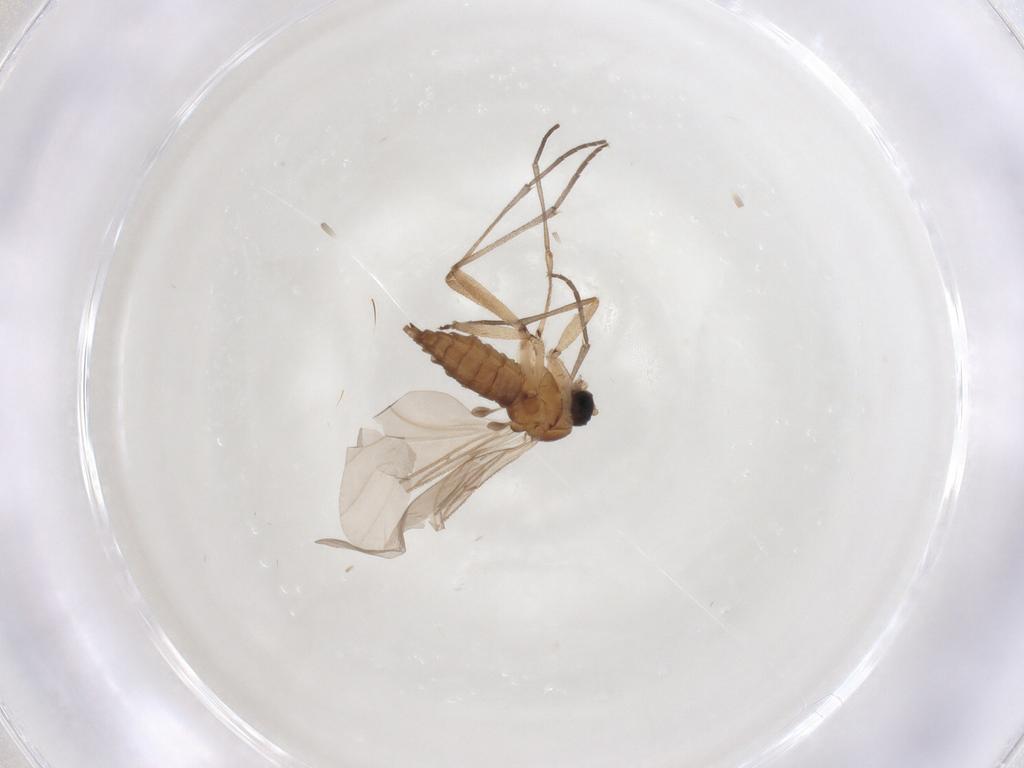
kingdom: Animalia
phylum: Arthropoda
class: Insecta
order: Diptera
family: Sciaridae
